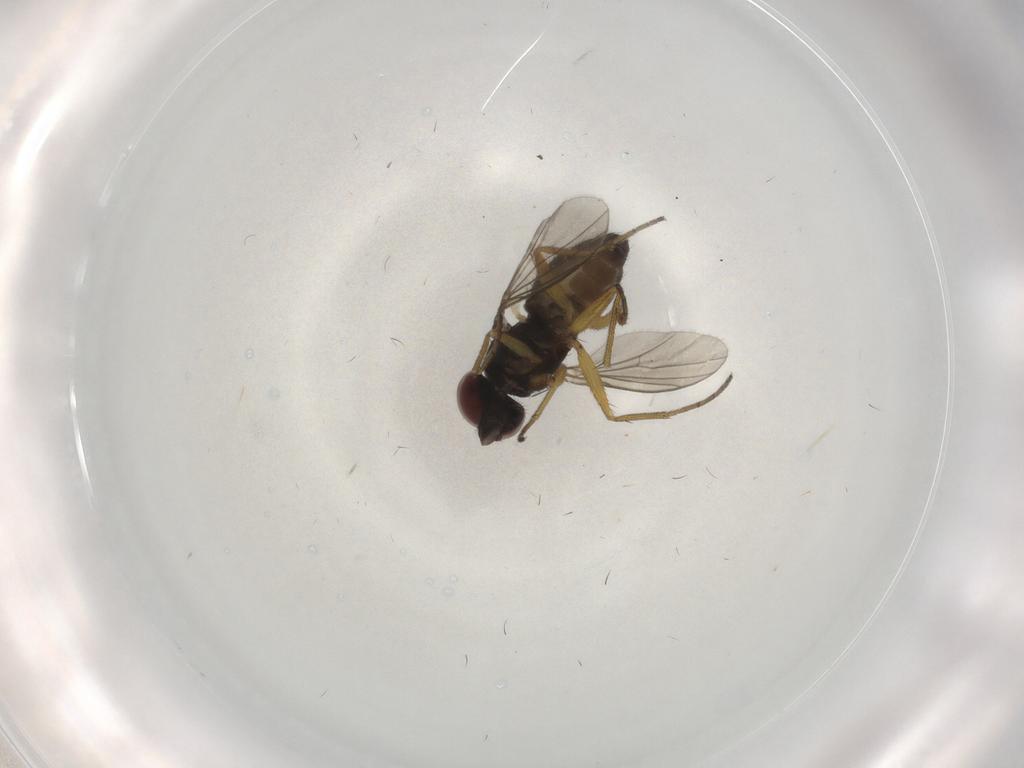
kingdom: Animalia
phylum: Arthropoda
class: Insecta
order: Diptera
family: Dolichopodidae
